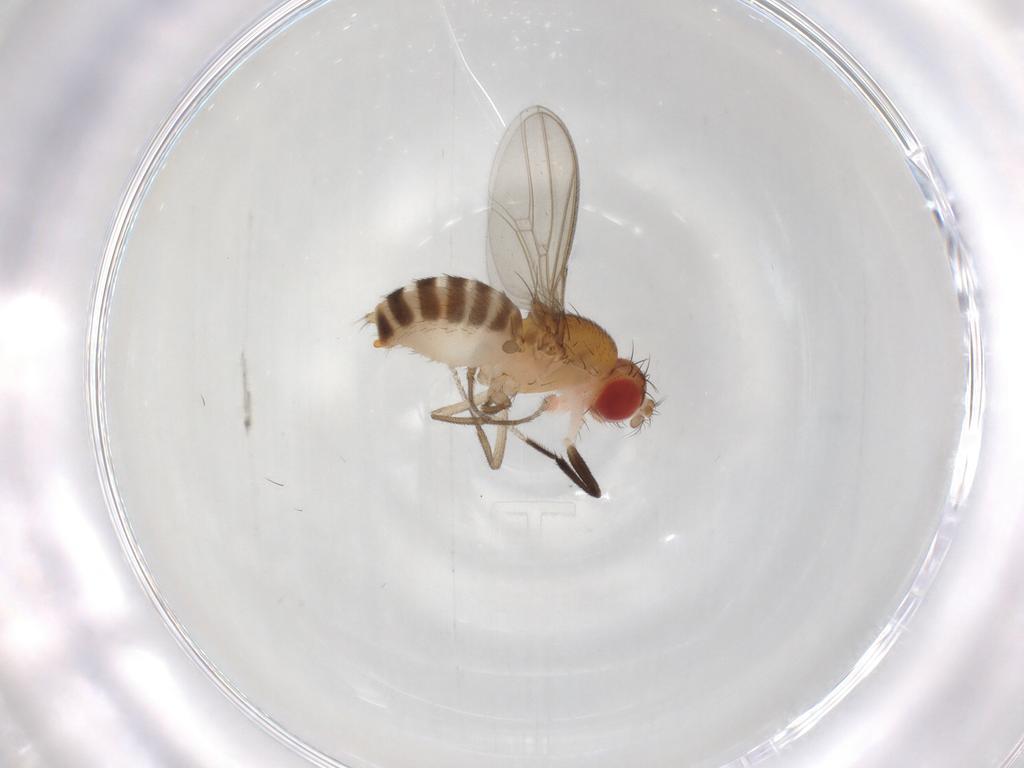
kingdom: Animalia
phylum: Arthropoda
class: Insecta
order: Diptera
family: Drosophilidae
